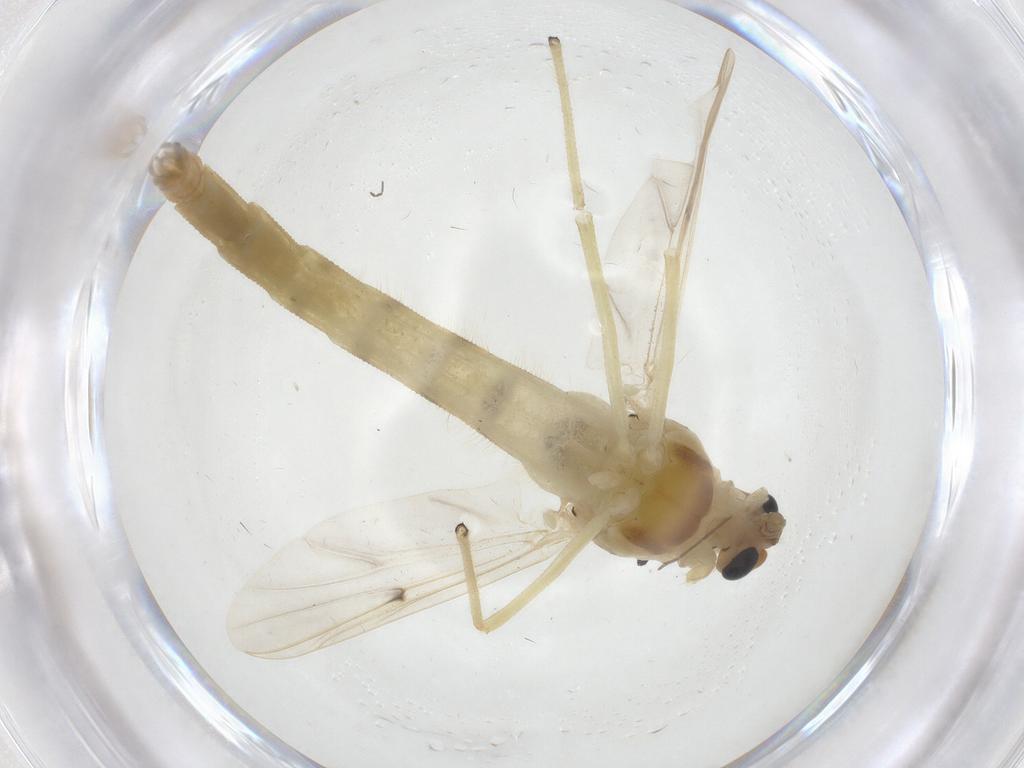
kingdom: Animalia
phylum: Arthropoda
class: Insecta
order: Diptera
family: Chironomidae
